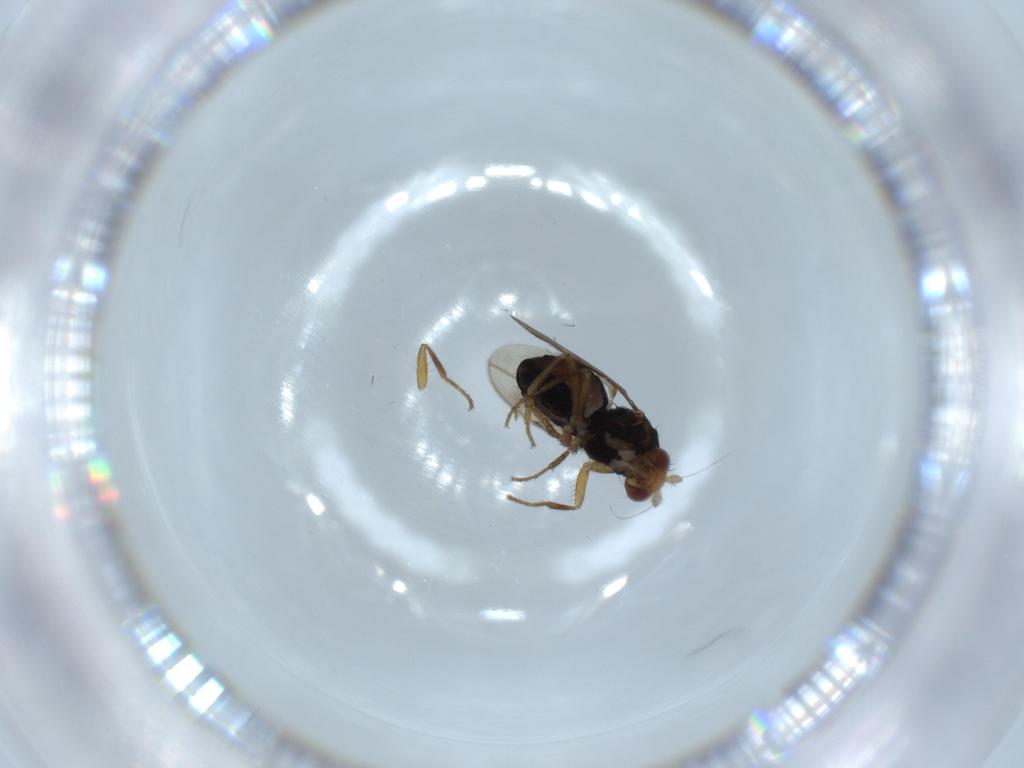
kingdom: Animalia
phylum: Arthropoda
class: Insecta
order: Diptera
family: Sphaeroceridae
